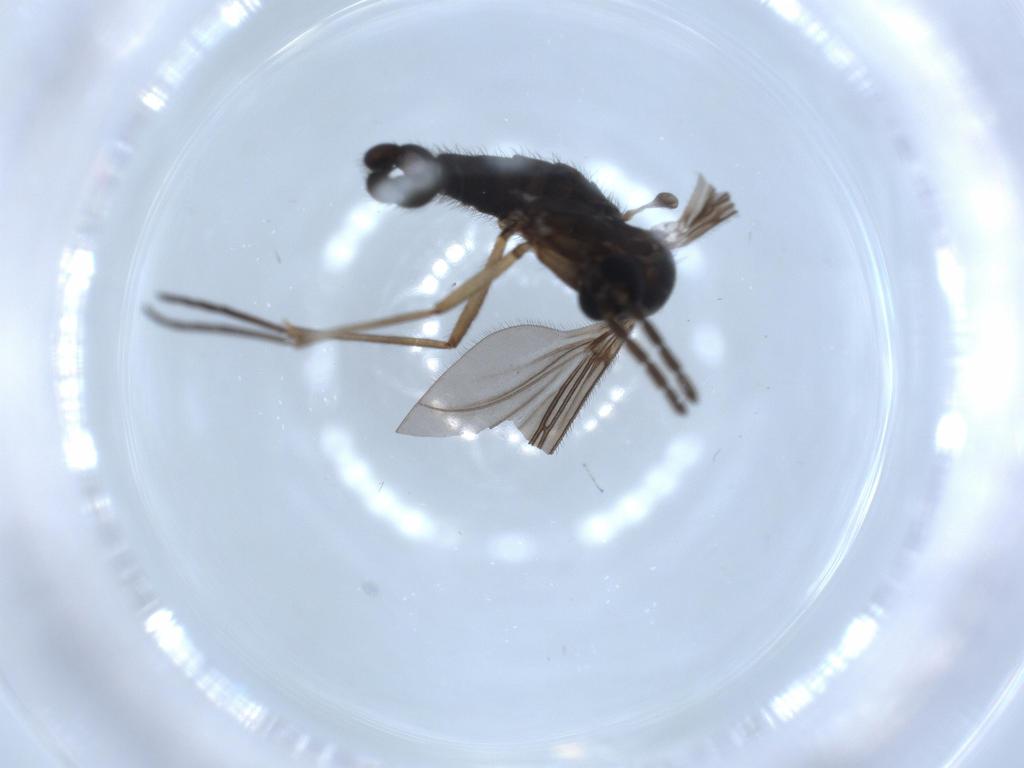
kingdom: Animalia
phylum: Arthropoda
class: Insecta
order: Diptera
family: Sciaridae
